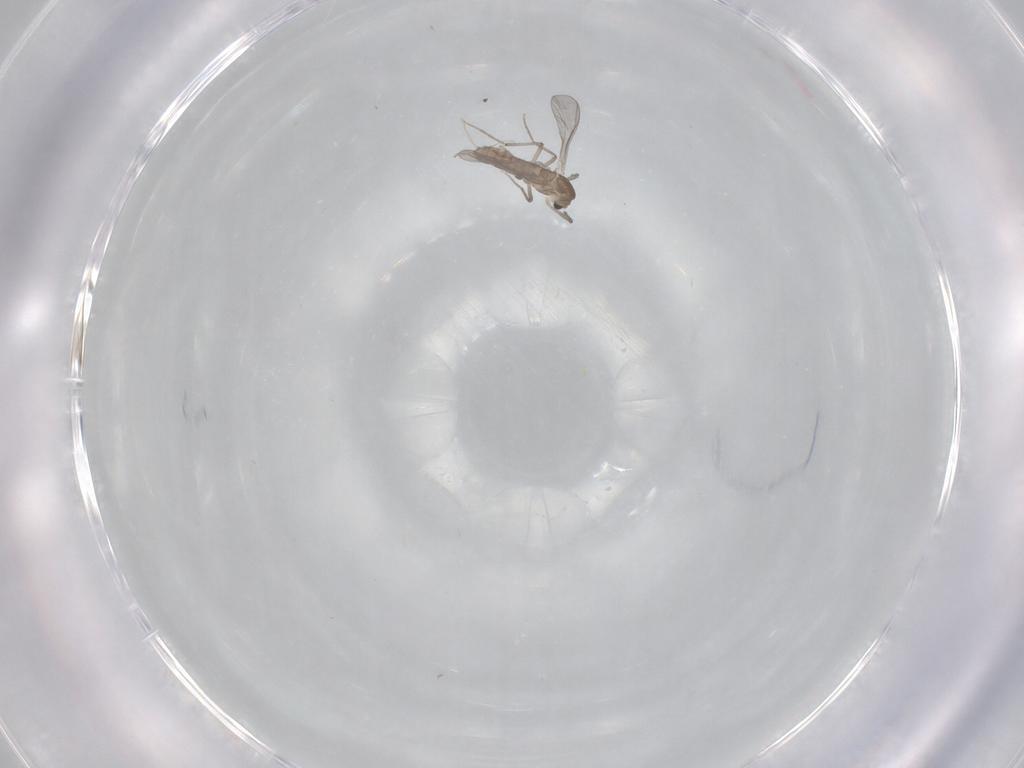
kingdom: Animalia
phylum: Arthropoda
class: Insecta
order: Diptera
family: Chironomidae
